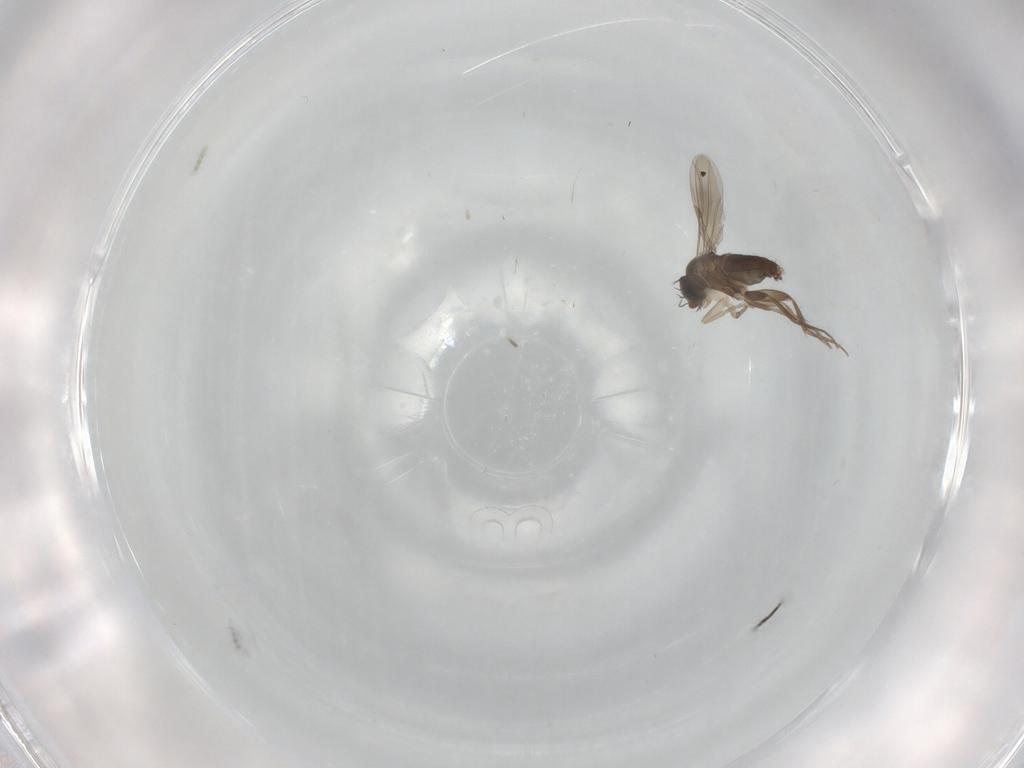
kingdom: Animalia
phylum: Arthropoda
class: Insecta
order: Diptera
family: Phoridae
